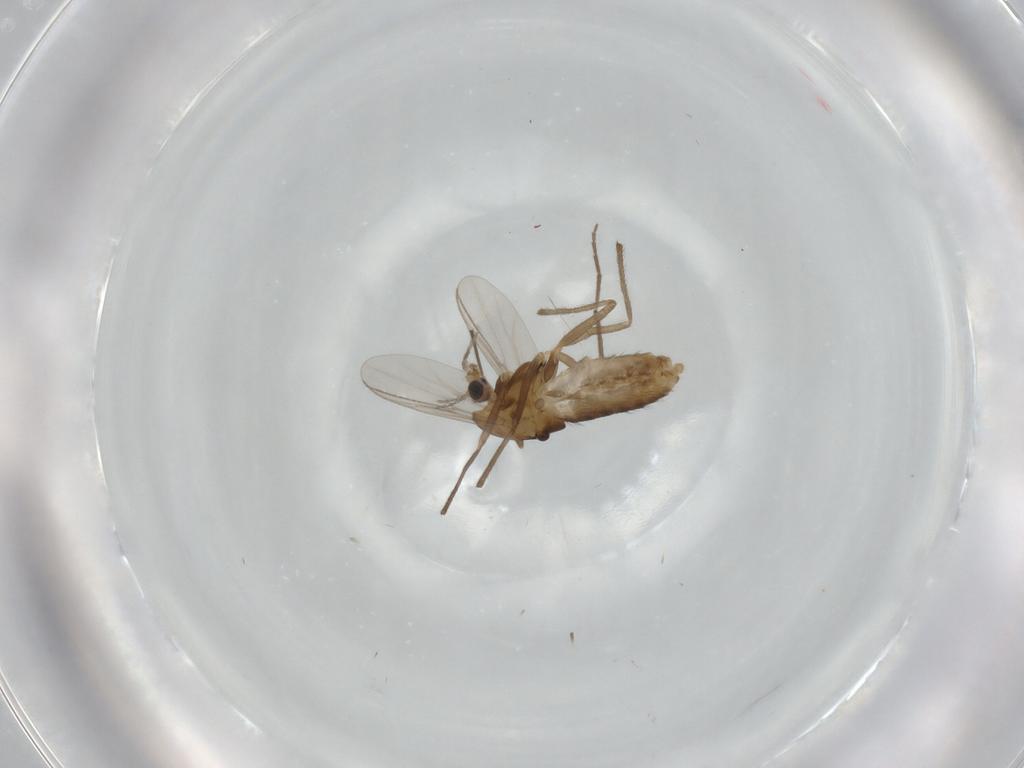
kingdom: Animalia
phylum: Arthropoda
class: Insecta
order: Diptera
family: Chironomidae
